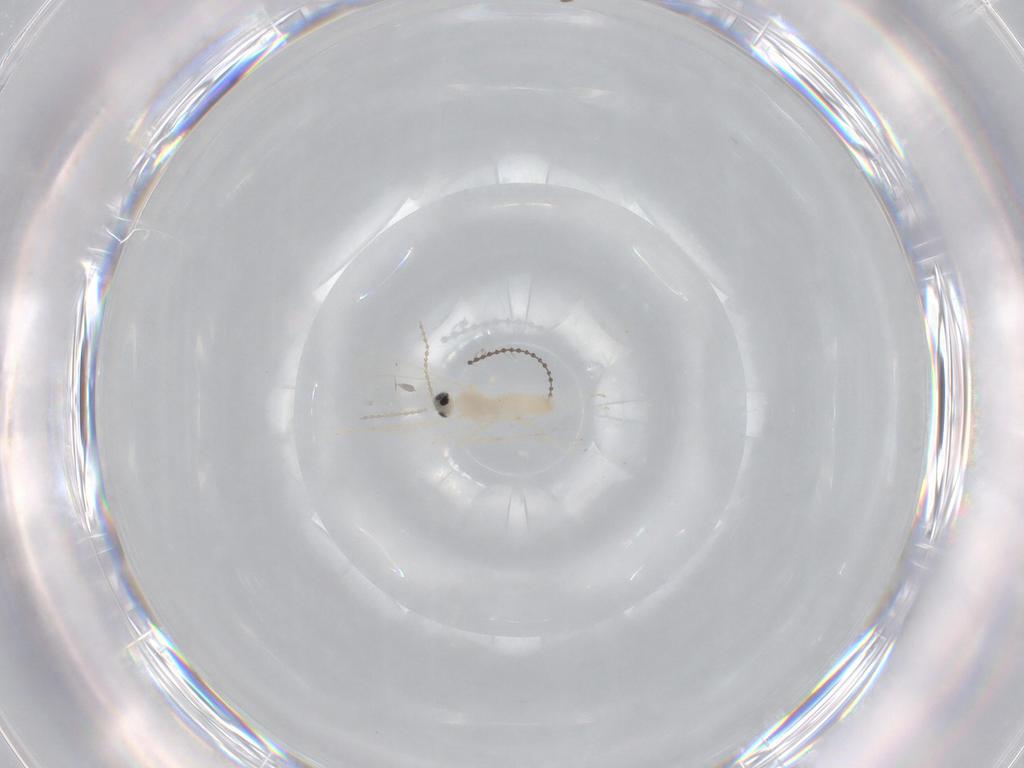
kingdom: Animalia
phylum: Arthropoda
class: Insecta
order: Diptera
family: Cecidomyiidae
